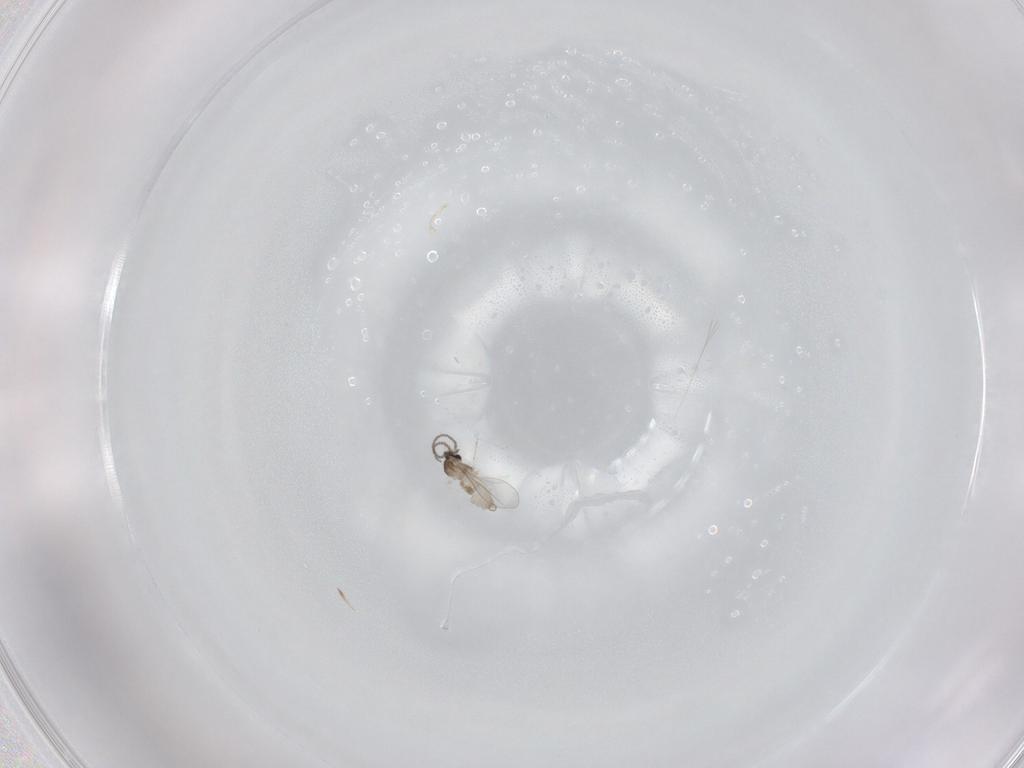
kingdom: Animalia
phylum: Arthropoda
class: Insecta
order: Diptera
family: Cecidomyiidae
